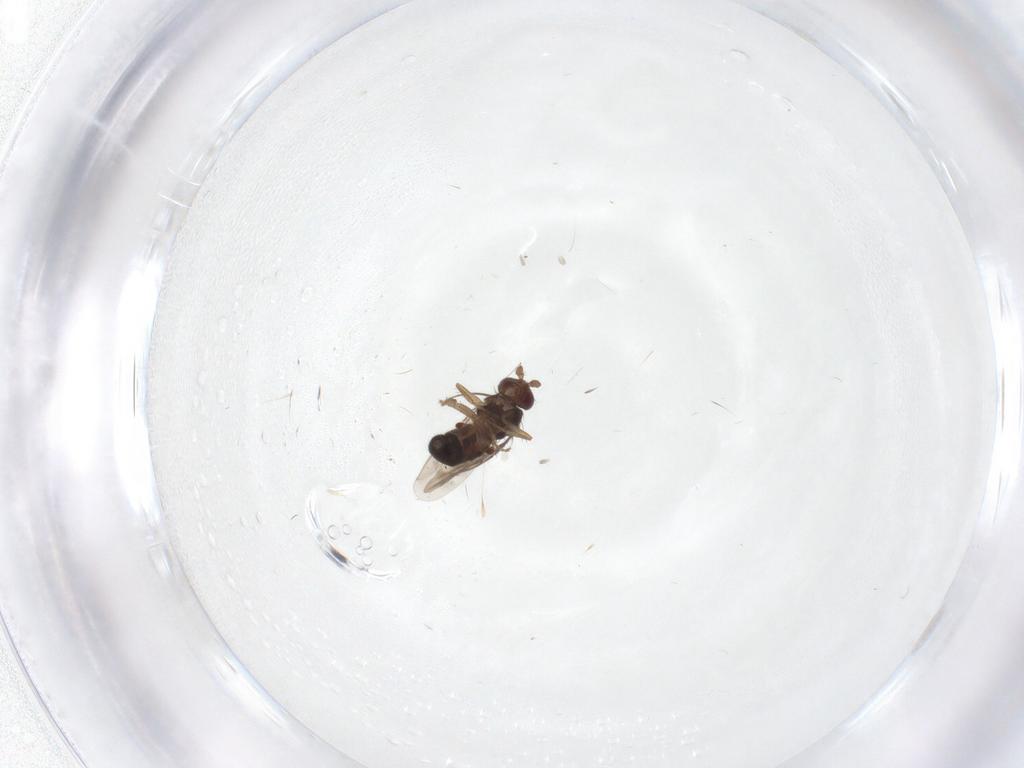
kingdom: Animalia
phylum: Arthropoda
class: Insecta
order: Diptera
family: Sphaeroceridae
